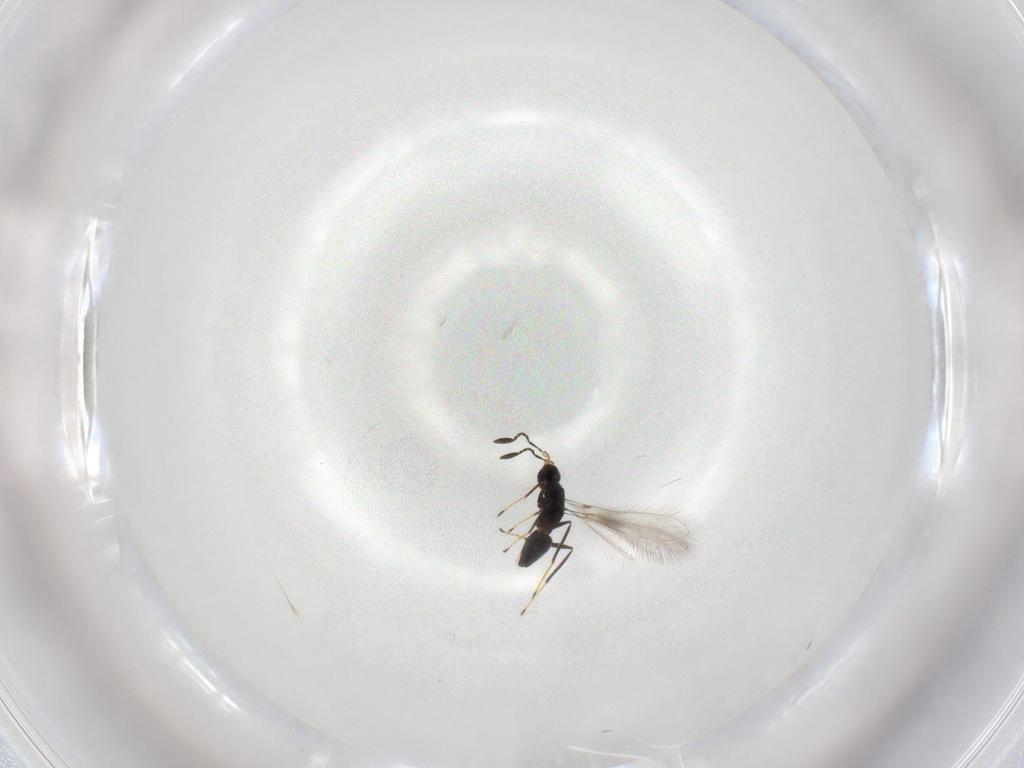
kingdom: Animalia
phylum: Arthropoda
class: Insecta
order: Hymenoptera
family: Mymaridae
